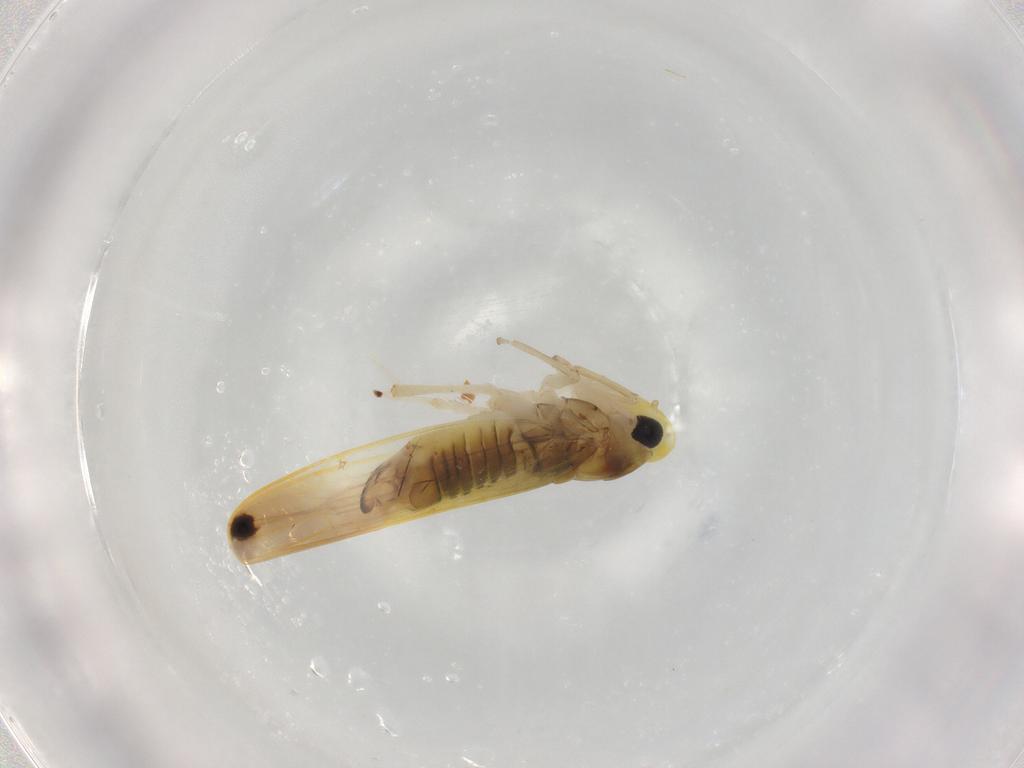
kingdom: Animalia
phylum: Arthropoda
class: Insecta
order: Hemiptera
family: Cicadellidae
